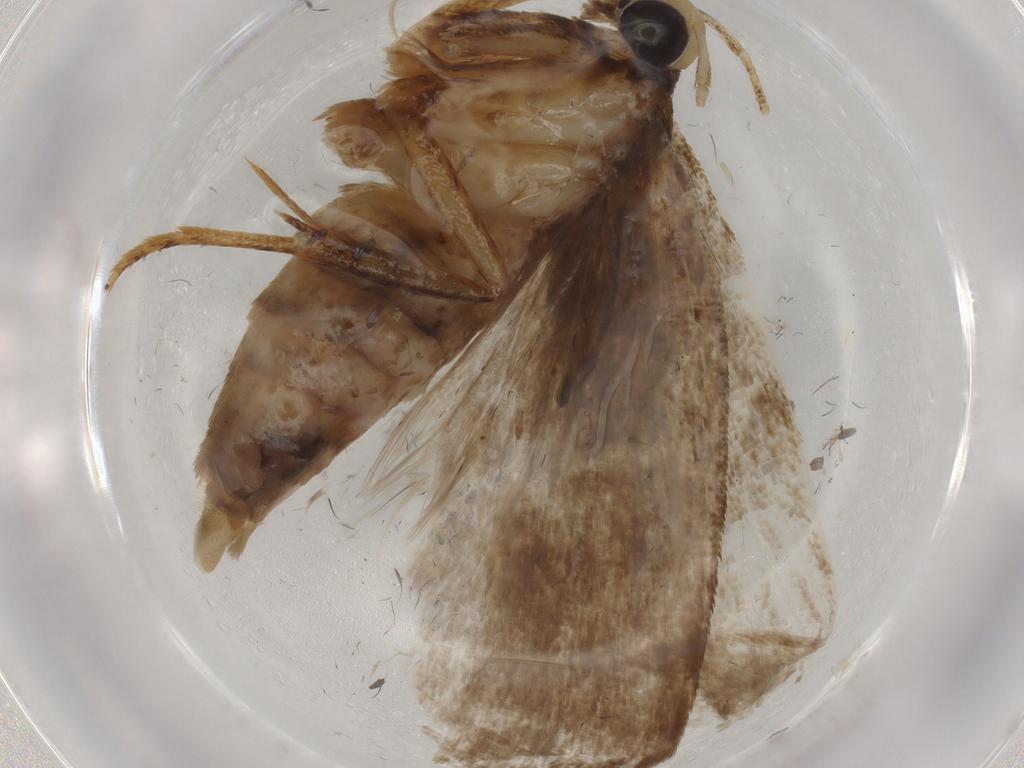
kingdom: Animalia
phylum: Arthropoda
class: Insecta
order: Lepidoptera
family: Autostichidae
